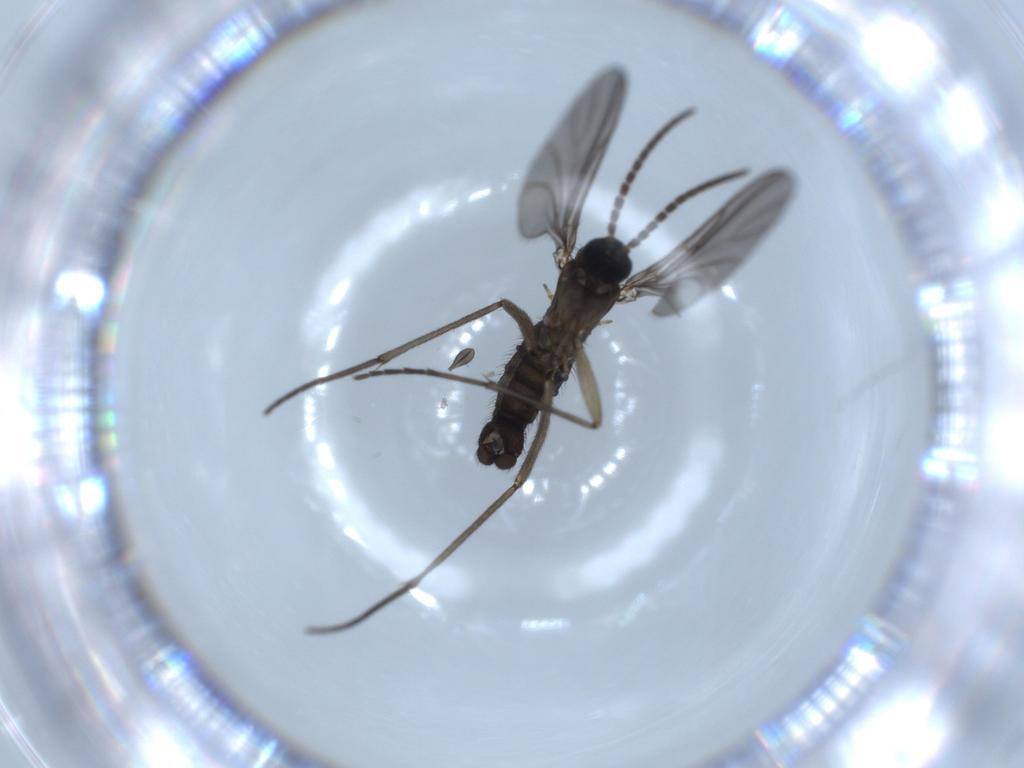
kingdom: Animalia
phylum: Arthropoda
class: Insecta
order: Diptera
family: Sciaridae
